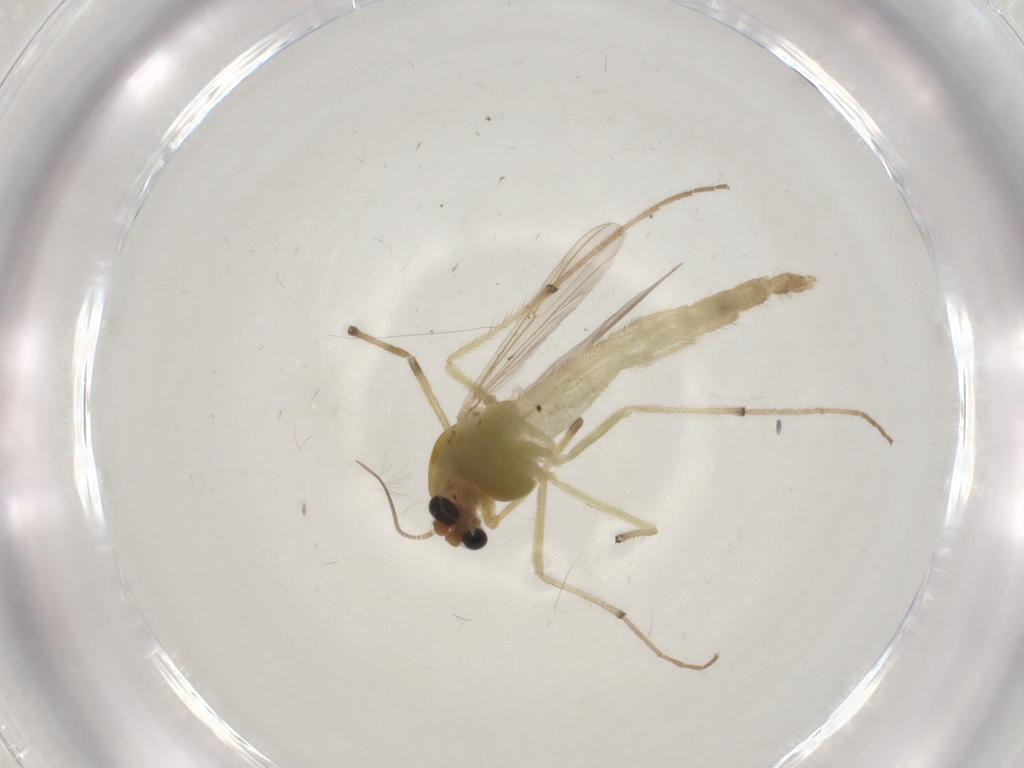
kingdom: Animalia
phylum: Arthropoda
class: Insecta
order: Diptera
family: Chironomidae
